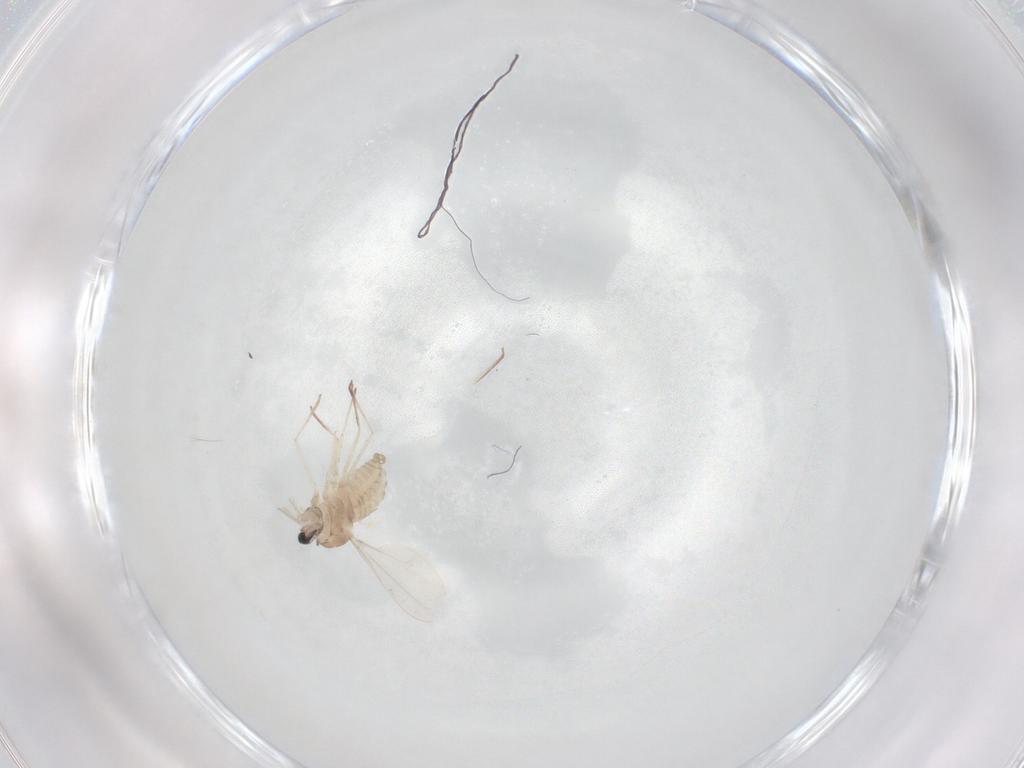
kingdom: Animalia
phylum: Arthropoda
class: Insecta
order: Diptera
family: Cecidomyiidae
